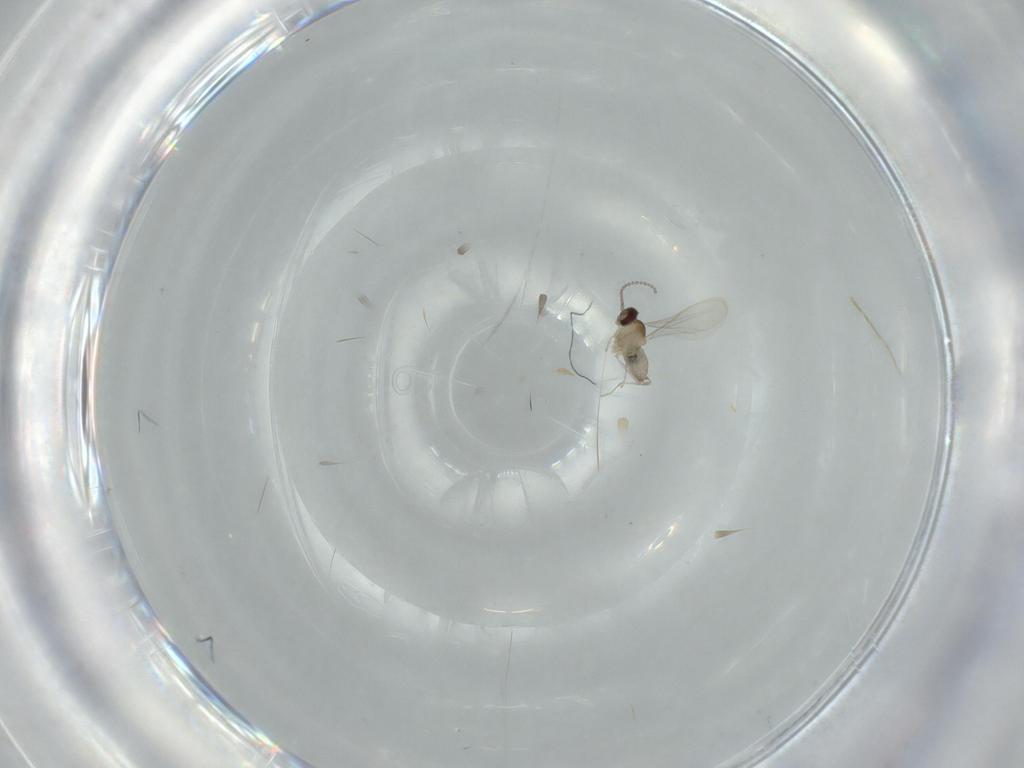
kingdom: Animalia
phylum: Arthropoda
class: Insecta
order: Diptera
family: Cecidomyiidae
